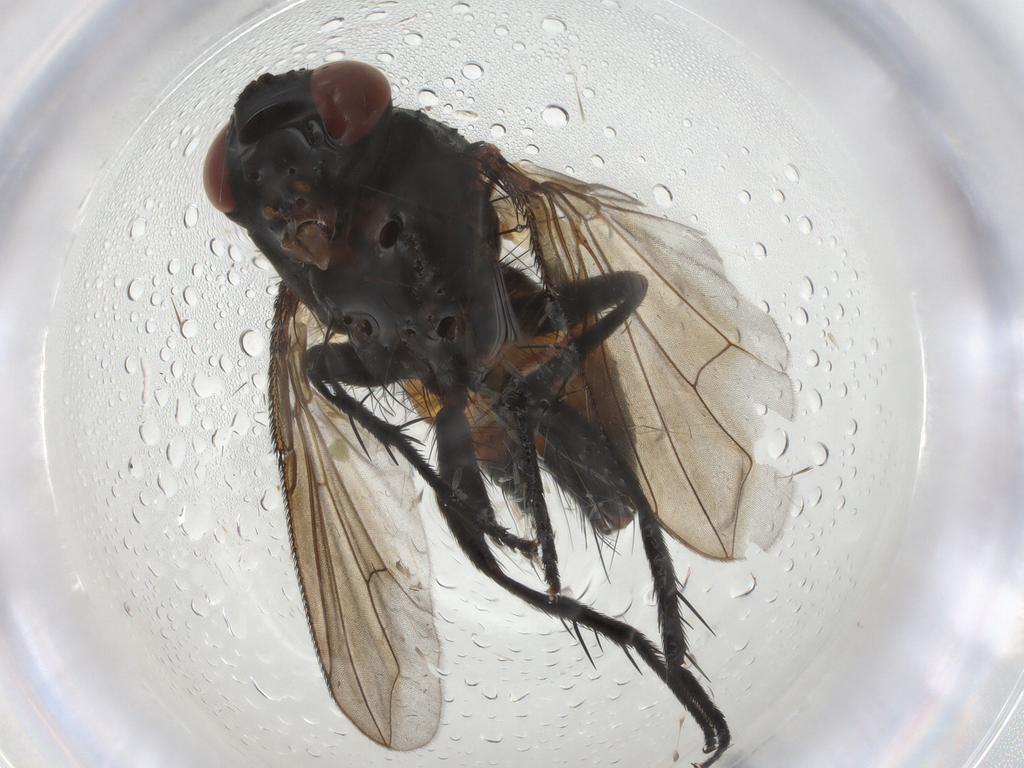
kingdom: Animalia
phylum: Arthropoda
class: Insecta
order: Diptera
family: Tachinidae
